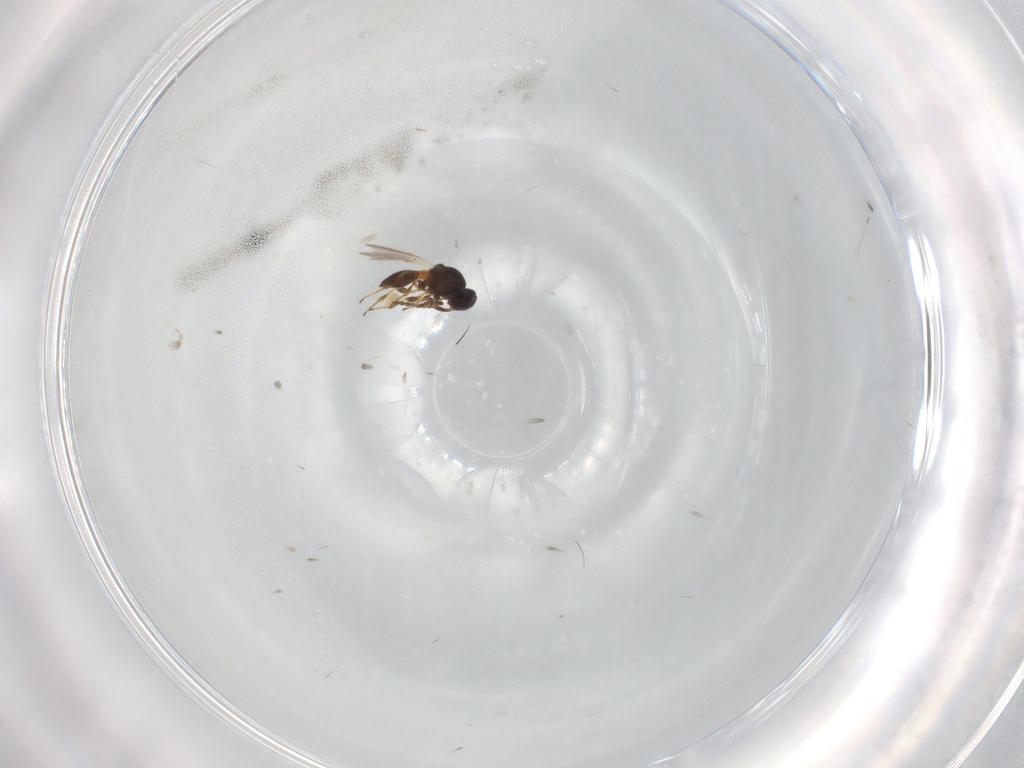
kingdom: Animalia
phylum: Arthropoda
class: Insecta
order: Hymenoptera
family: Platygastridae
